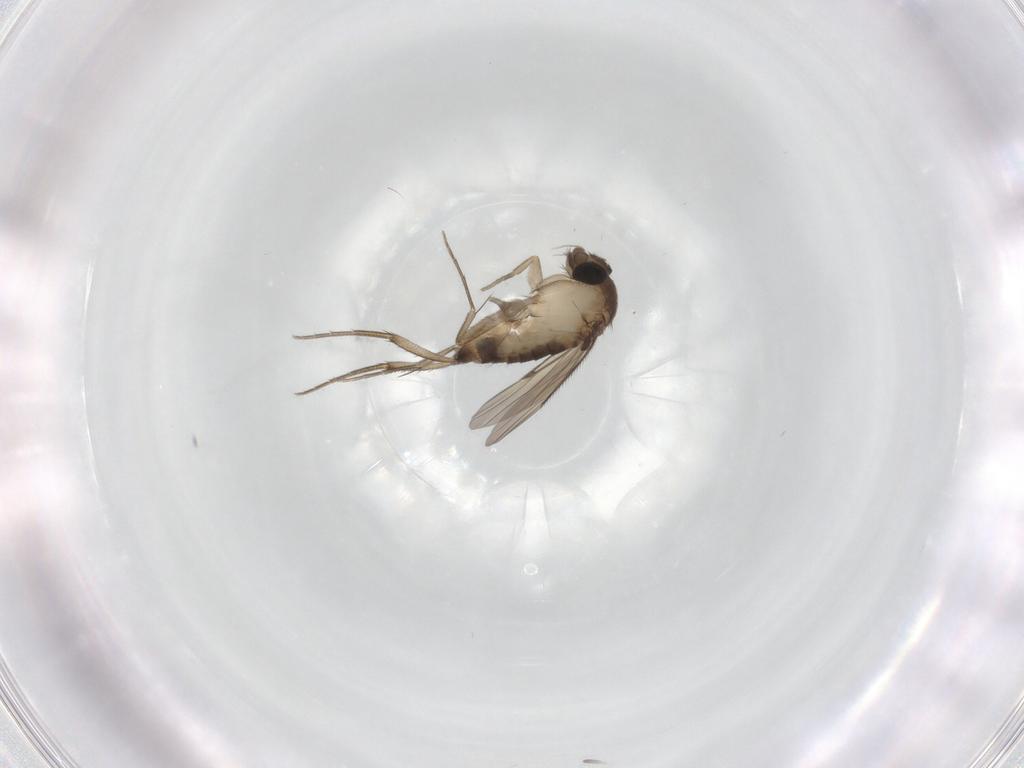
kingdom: Animalia
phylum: Arthropoda
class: Insecta
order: Diptera
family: Phoridae
